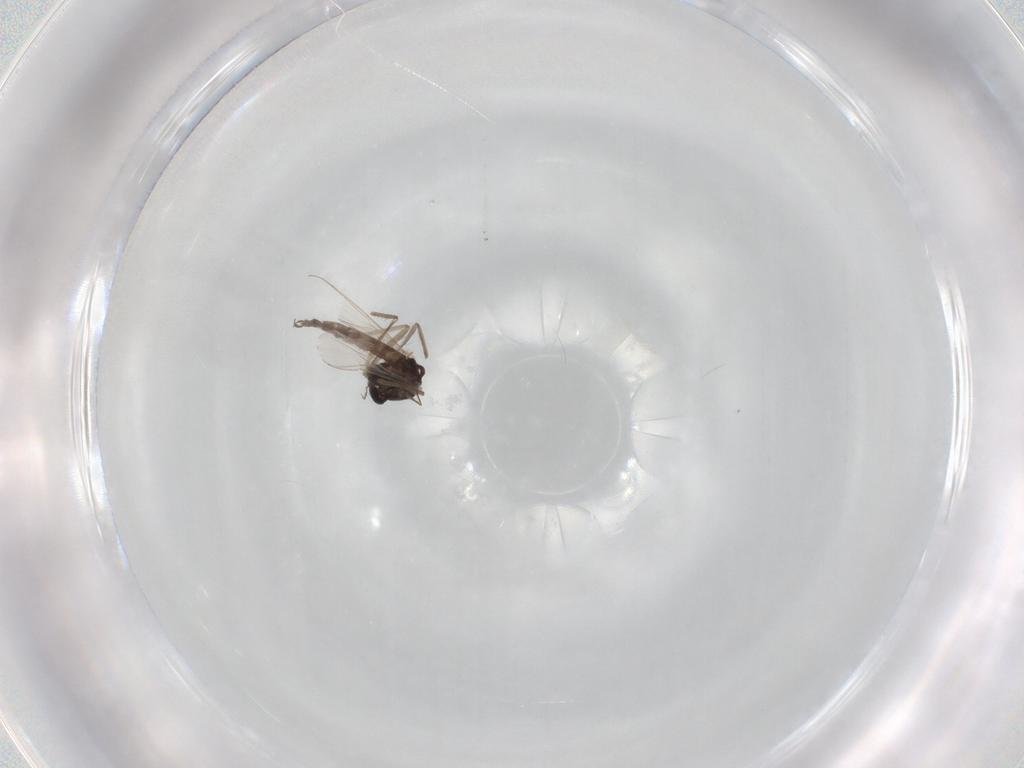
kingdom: Animalia
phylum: Arthropoda
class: Insecta
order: Diptera
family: Chironomidae
